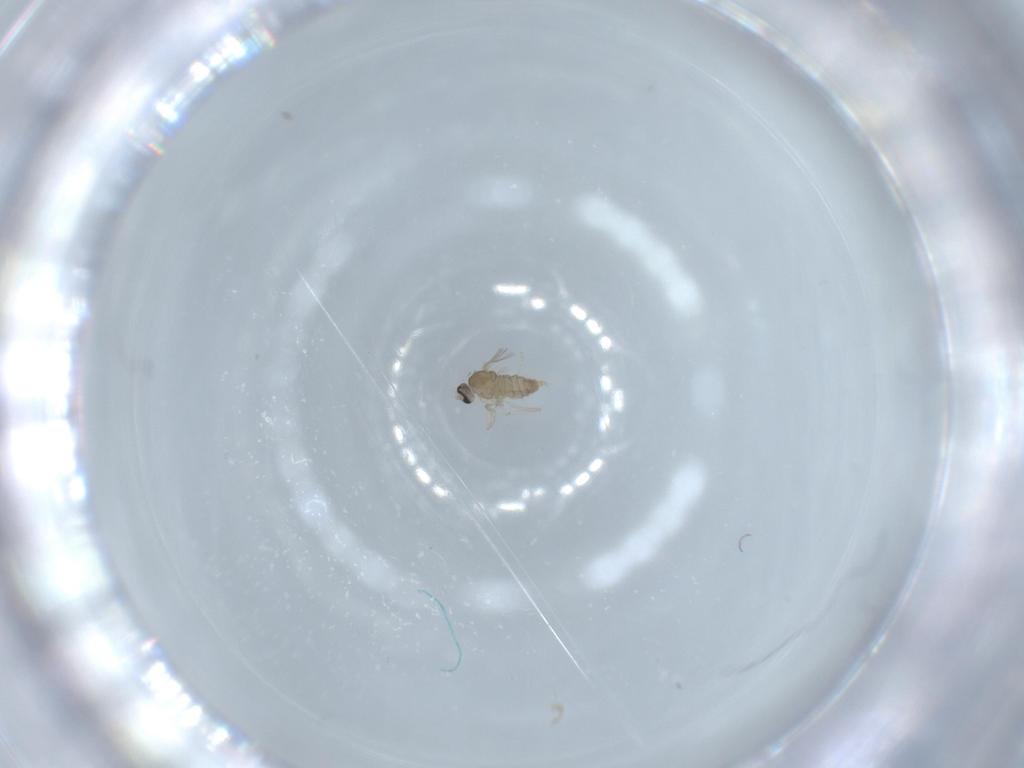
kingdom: Animalia
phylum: Arthropoda
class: Insecta
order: Diptera
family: Cecidomyiidae
